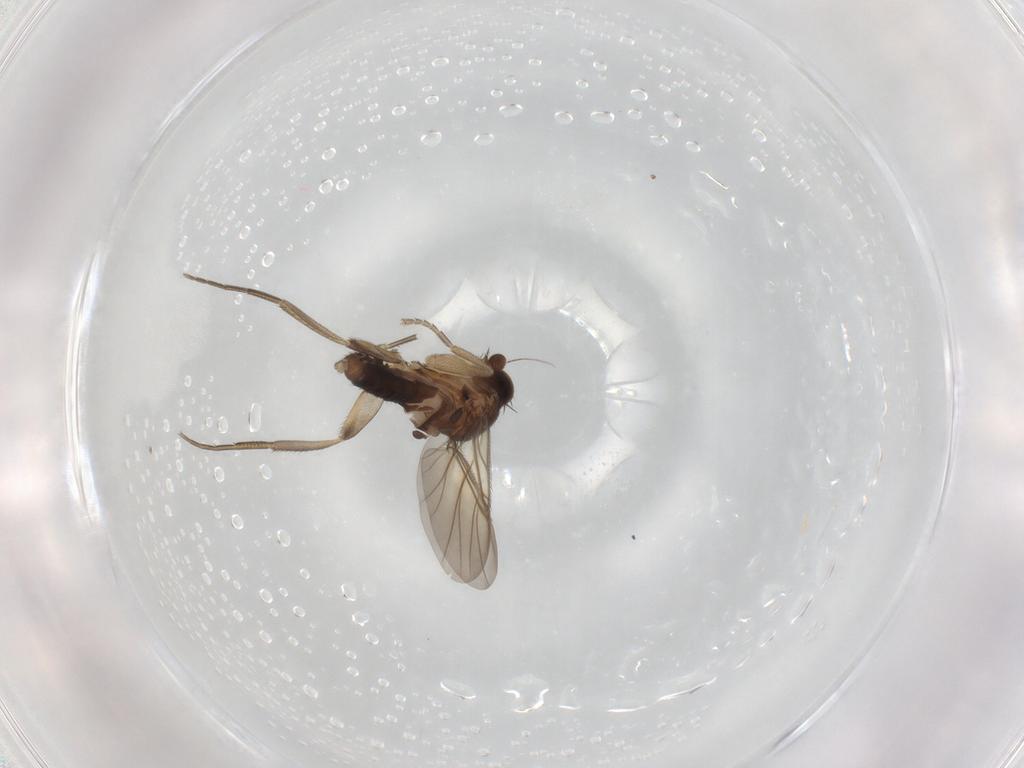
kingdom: Animalia
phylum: Arthropoda
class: Insecta
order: Diptera
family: Phoridae
